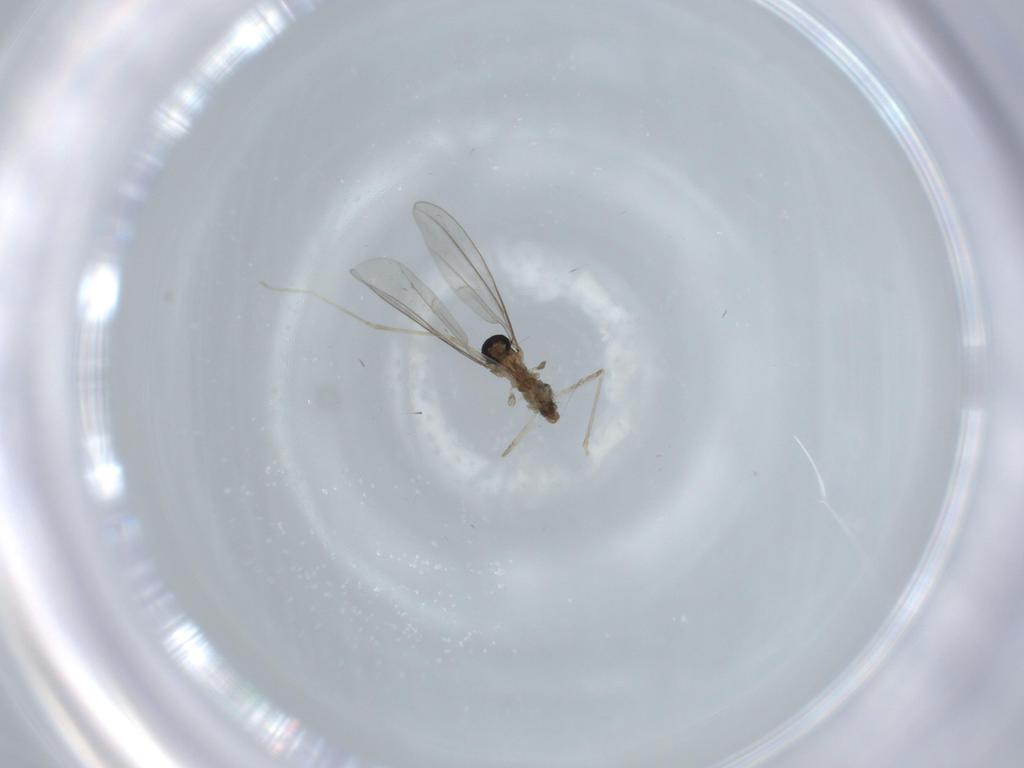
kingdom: Animalia
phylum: Arthropoda
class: Insecta
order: Diptera
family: Cecidomyiidae
